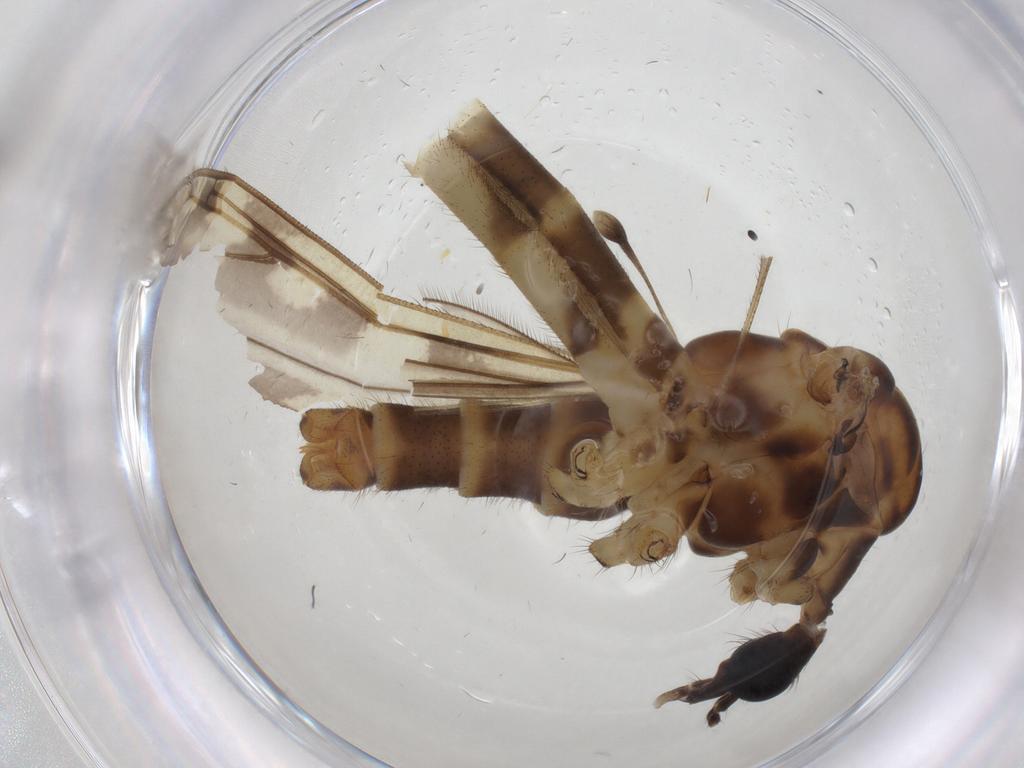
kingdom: Animalia
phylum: Arthropoda
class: Insecta
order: Diptera
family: Limoniidae
